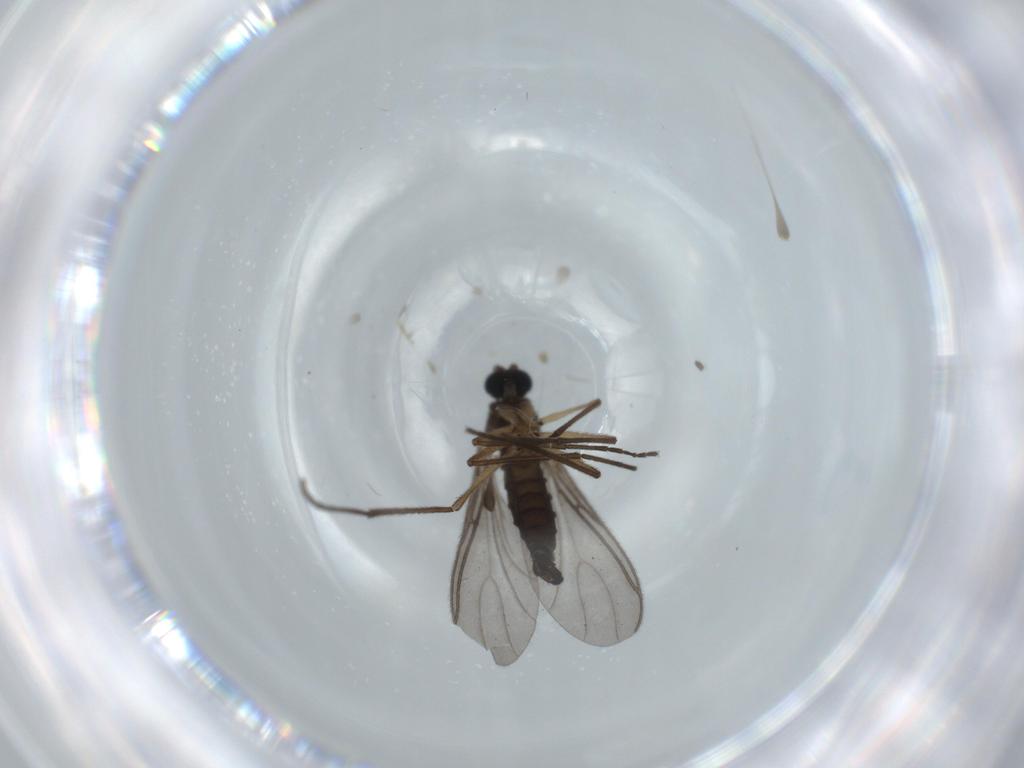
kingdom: Animalia
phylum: Arthropoda
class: Insecta
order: Diptera
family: Sciaridae
